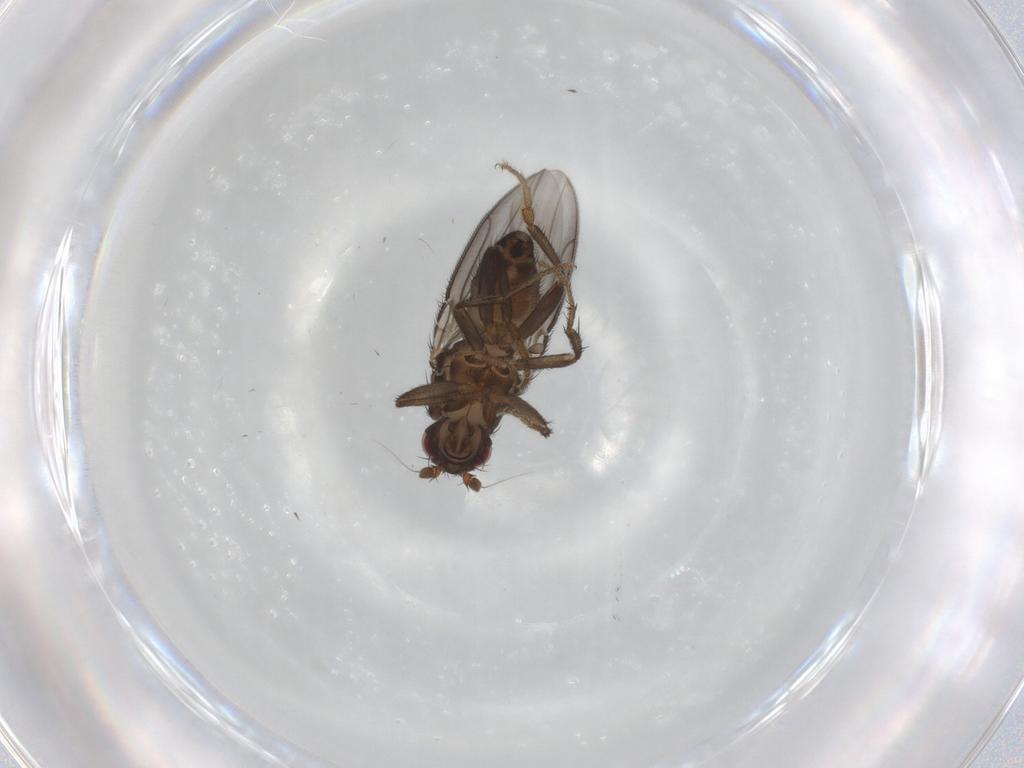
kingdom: Animalia
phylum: Arthropoda
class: Insecta
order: Diptera
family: Sphaeroceridae
